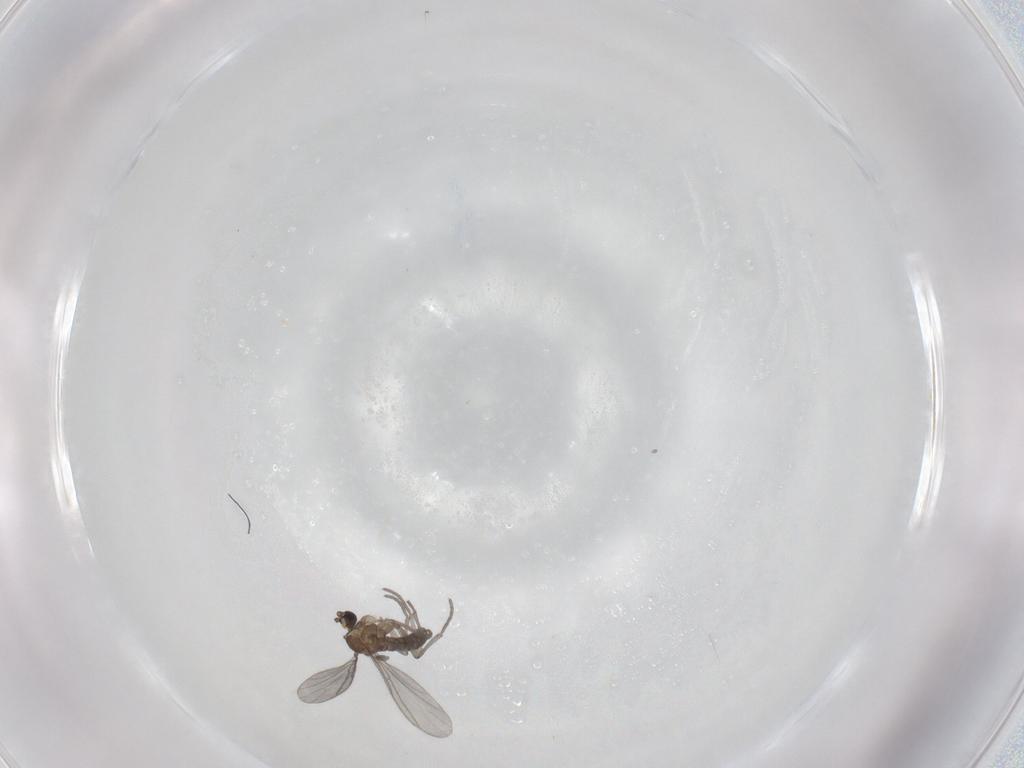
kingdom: Animalia
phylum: Arthropoda
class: Insecta
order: Diptera
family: Sciaridae
